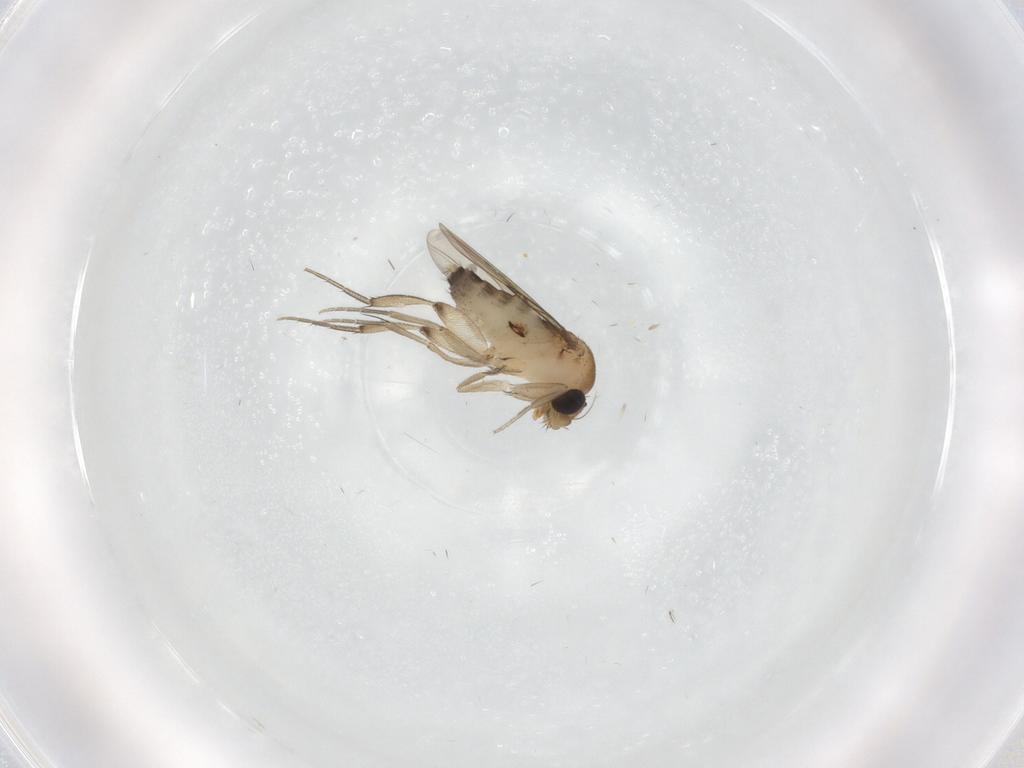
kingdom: Animalia
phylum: Arthropoda
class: Insecta
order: Diptera
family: Phoridae
